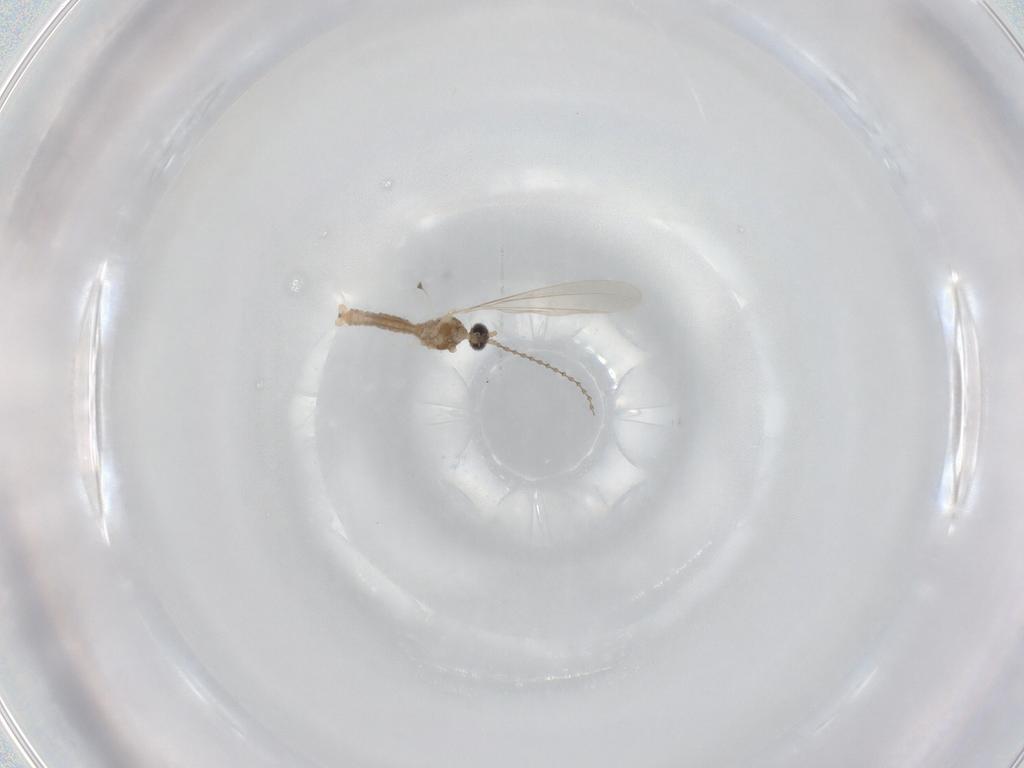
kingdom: Animalia
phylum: Arthropoda
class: Insecta
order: Diptera
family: Cecidomyiidae
